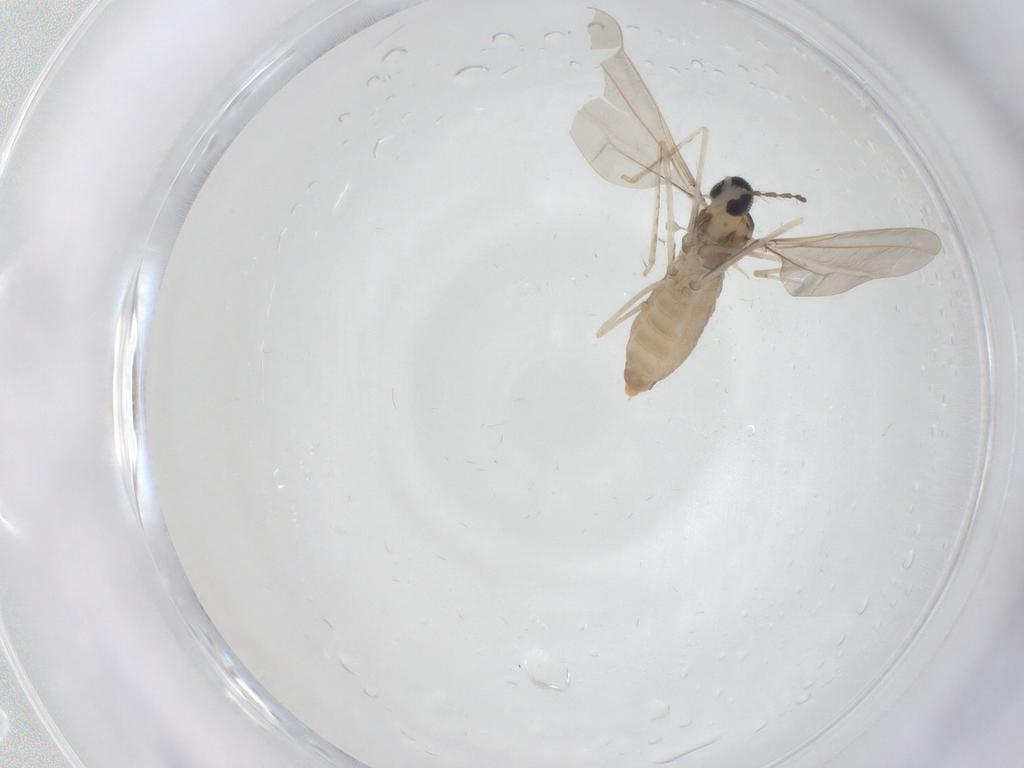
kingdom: Animalia
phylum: Arthropoda
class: Insecta
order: Diptera
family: Cecidomyiidae
